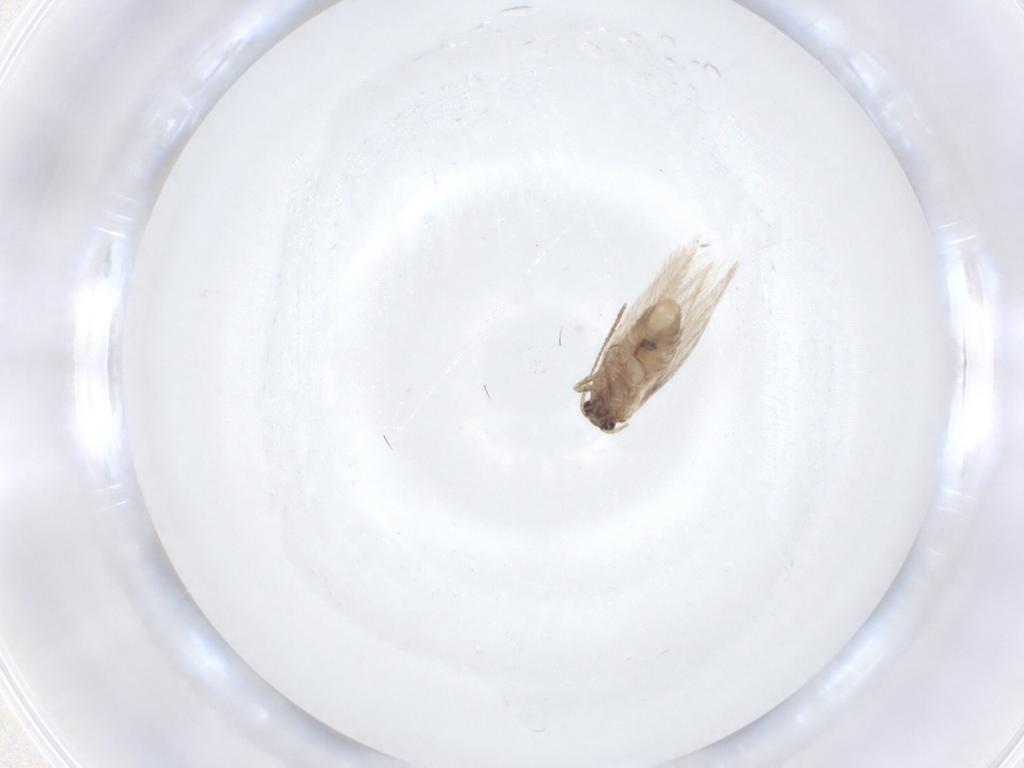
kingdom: Animalia
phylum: Arthropoda
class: Insecta
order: Lepidoptera
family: Nepticulidae
